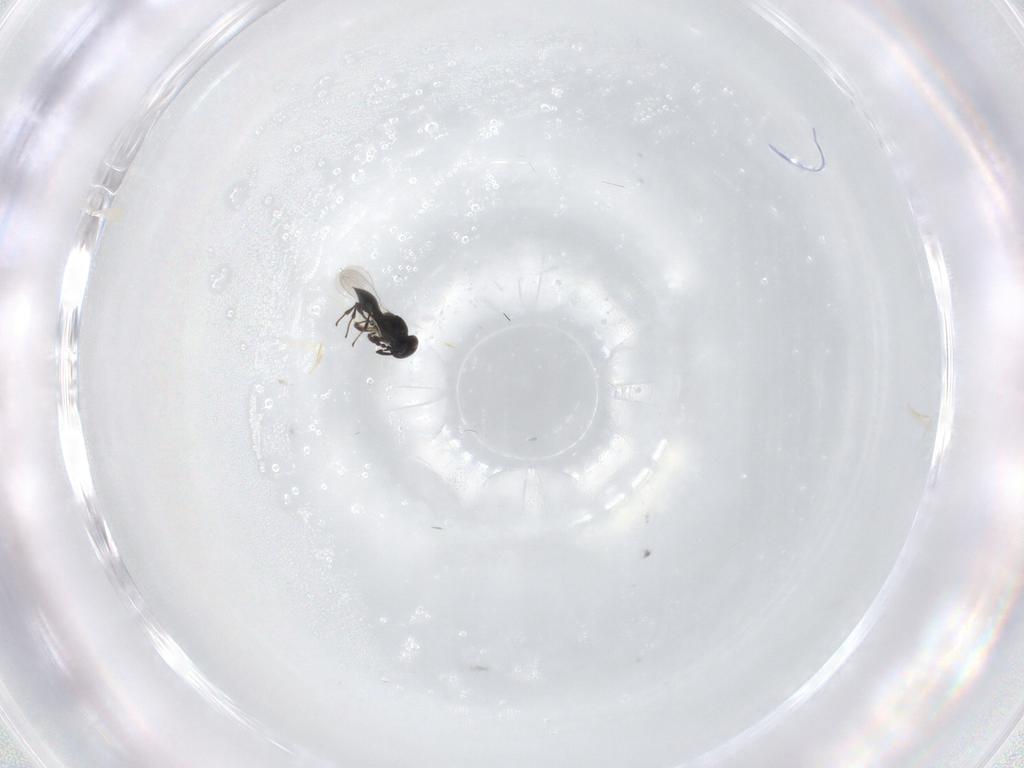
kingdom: Animalia
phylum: Arthropoda
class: Insecta
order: Hymenoptera
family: Platygastridae
